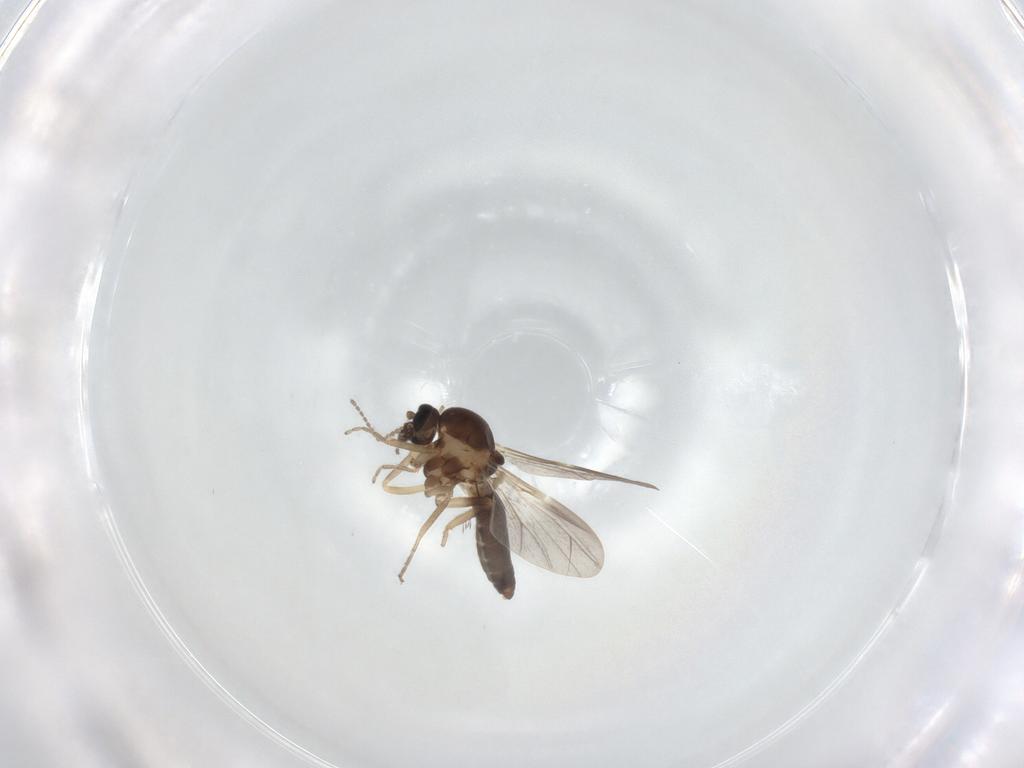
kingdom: Animalia
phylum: Arthropoda
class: Insecta
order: Diptera
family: Ceratopogonidae
